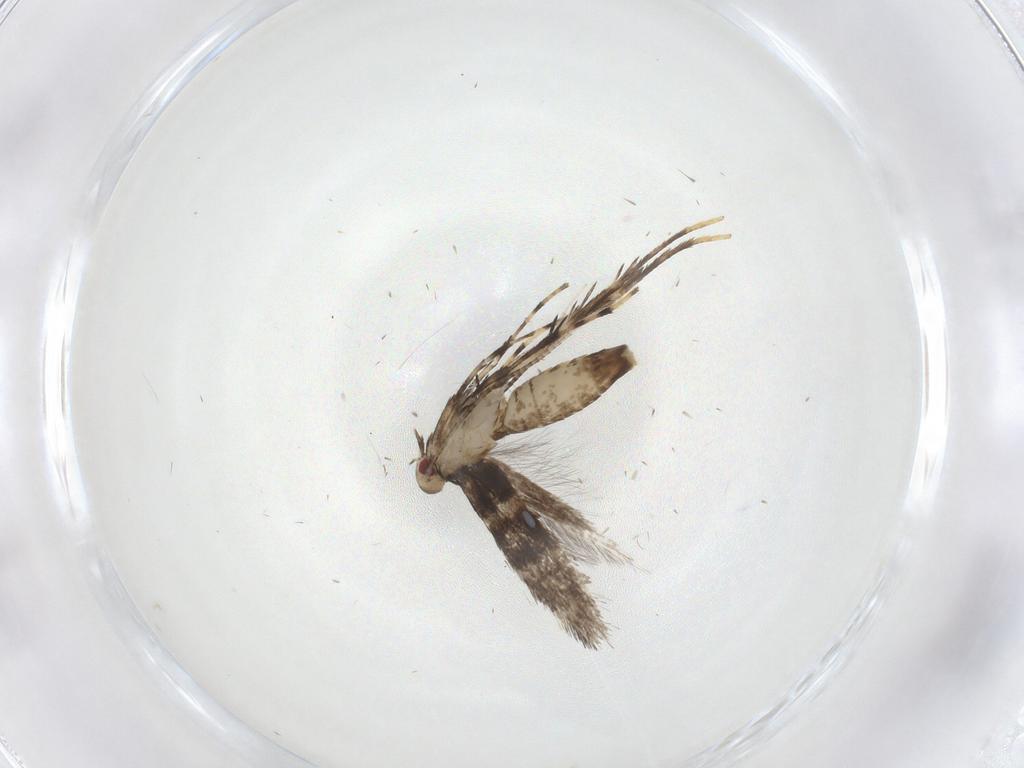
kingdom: Animalia
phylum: Arthropoda
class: Insecta
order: Lepidoptera
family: Gracillariidae
